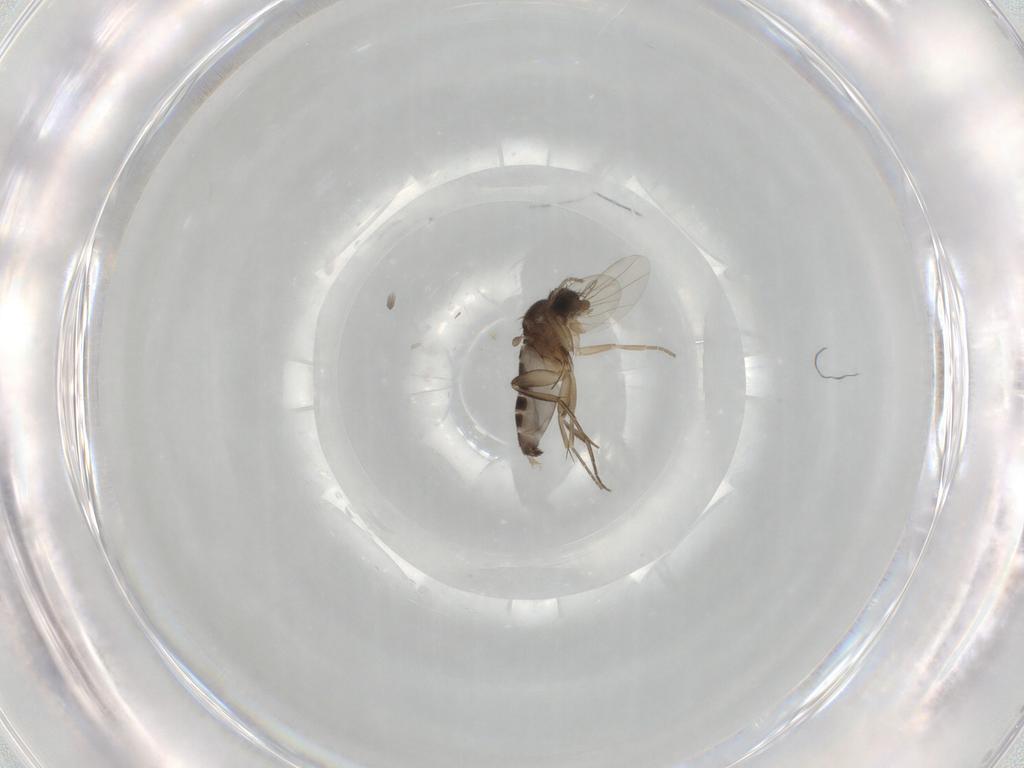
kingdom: Animalia
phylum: Arthropoda
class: Insecta
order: Diptera
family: Phoridae
